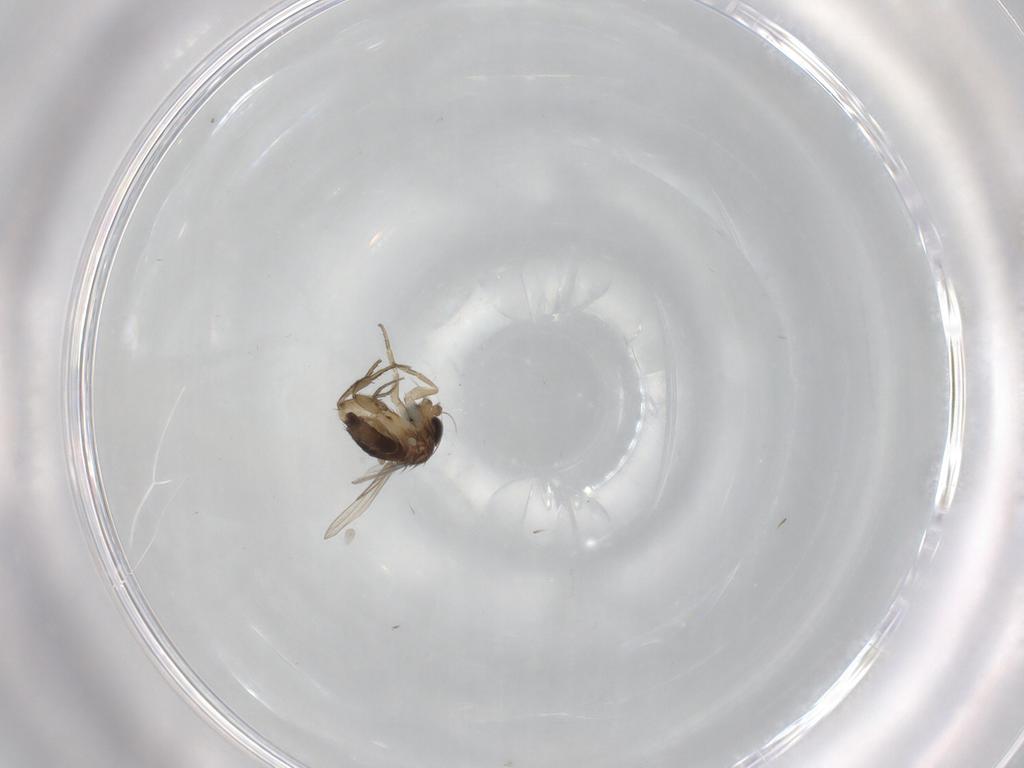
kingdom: Animalia
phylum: Arthropoda
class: Insecta
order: Diptera
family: Phoridae
